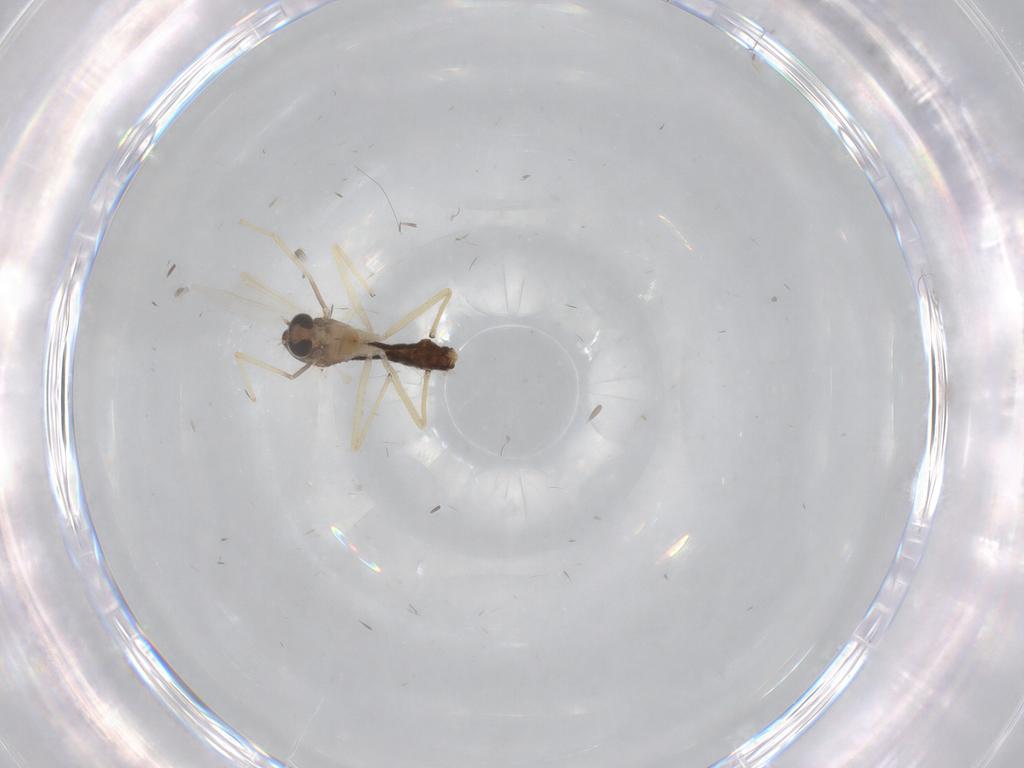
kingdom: Animalia
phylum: Arthropoda
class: Insecta
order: Diptera
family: Chironomidae
